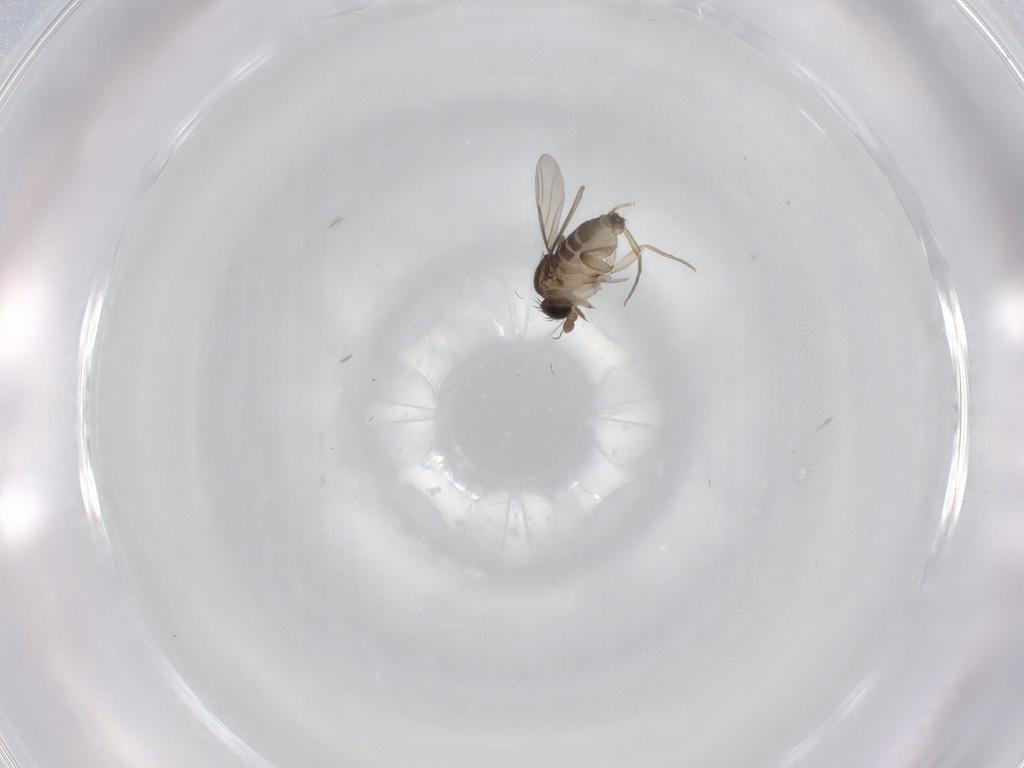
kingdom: Animalia
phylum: Arthropoda
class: Insecta
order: Diptera
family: Phoridae
